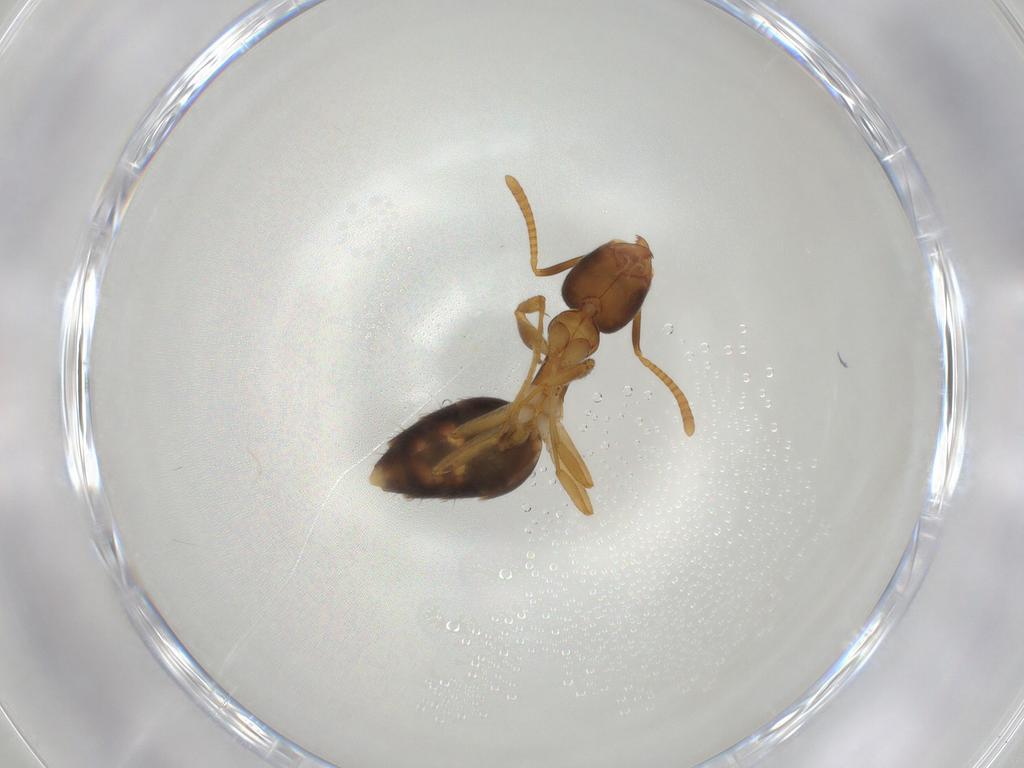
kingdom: Animalia
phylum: Arthropoda
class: Insecta
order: Hymenoptera
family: Formicidae
